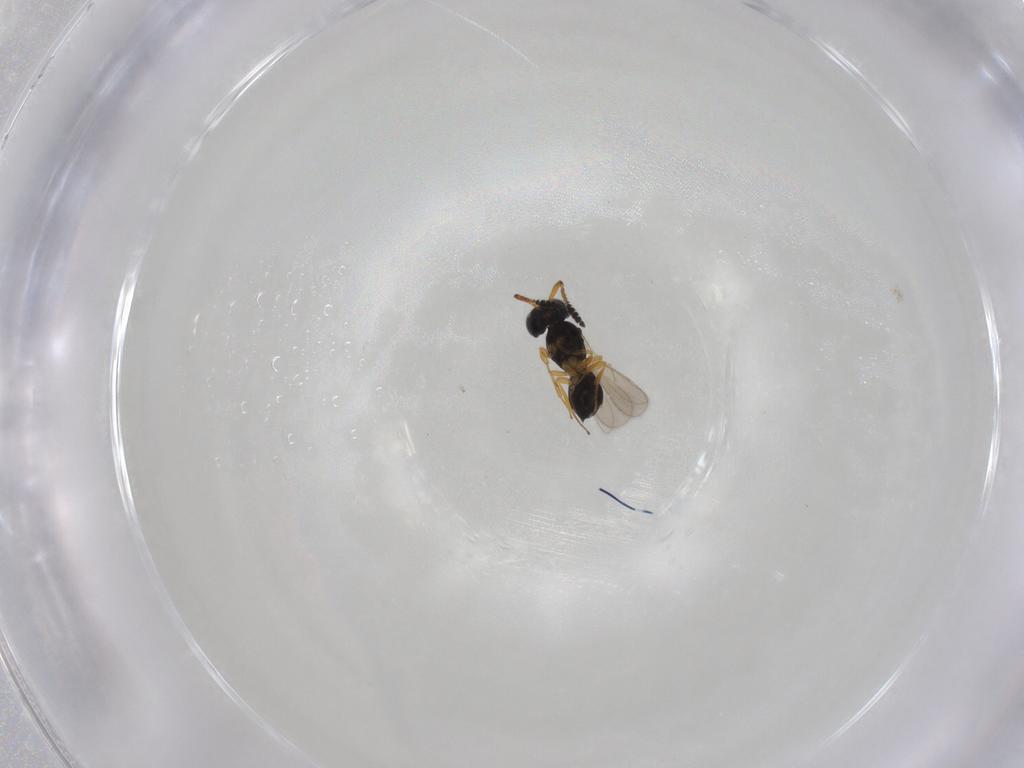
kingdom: Animalia
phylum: Arthropoda
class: Insecta
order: Hymenoptera
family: Scelionidae
